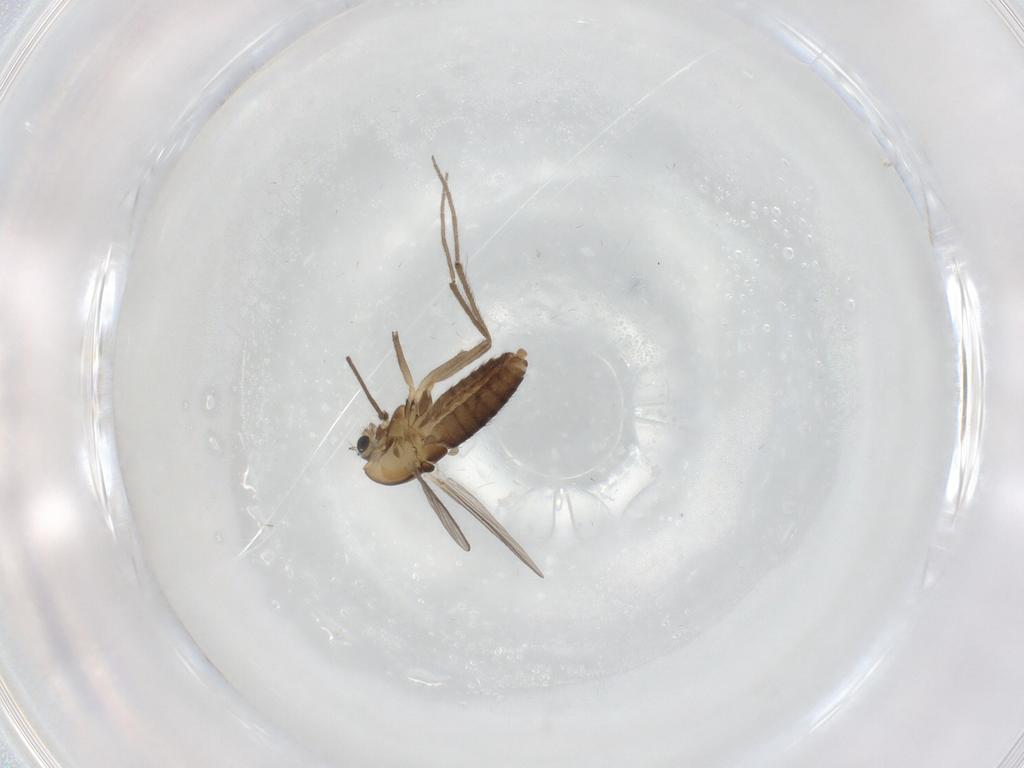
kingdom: Animalia
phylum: Arthropoda
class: Insecta
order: Diptera
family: Chironomidae
